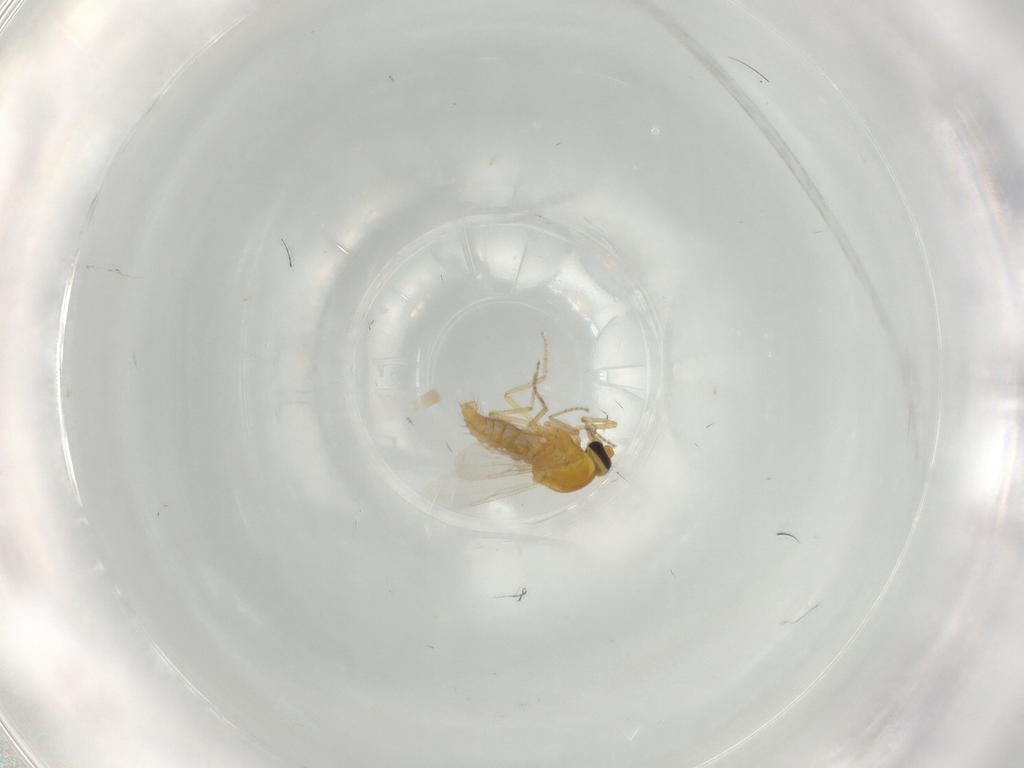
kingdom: Animalia
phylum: Arthropoda
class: Insecta
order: Diptera
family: Ceratopogonidae
